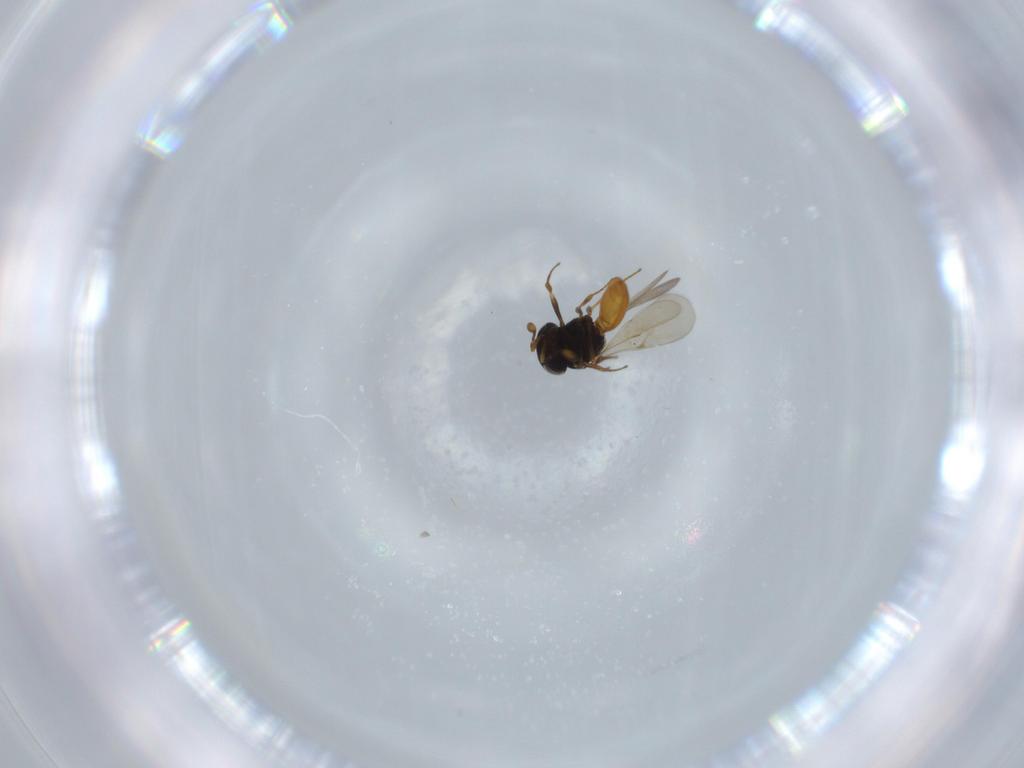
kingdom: Animalia
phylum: Arthropoda
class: Insecta
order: Hymenoptera
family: Scelionidae
